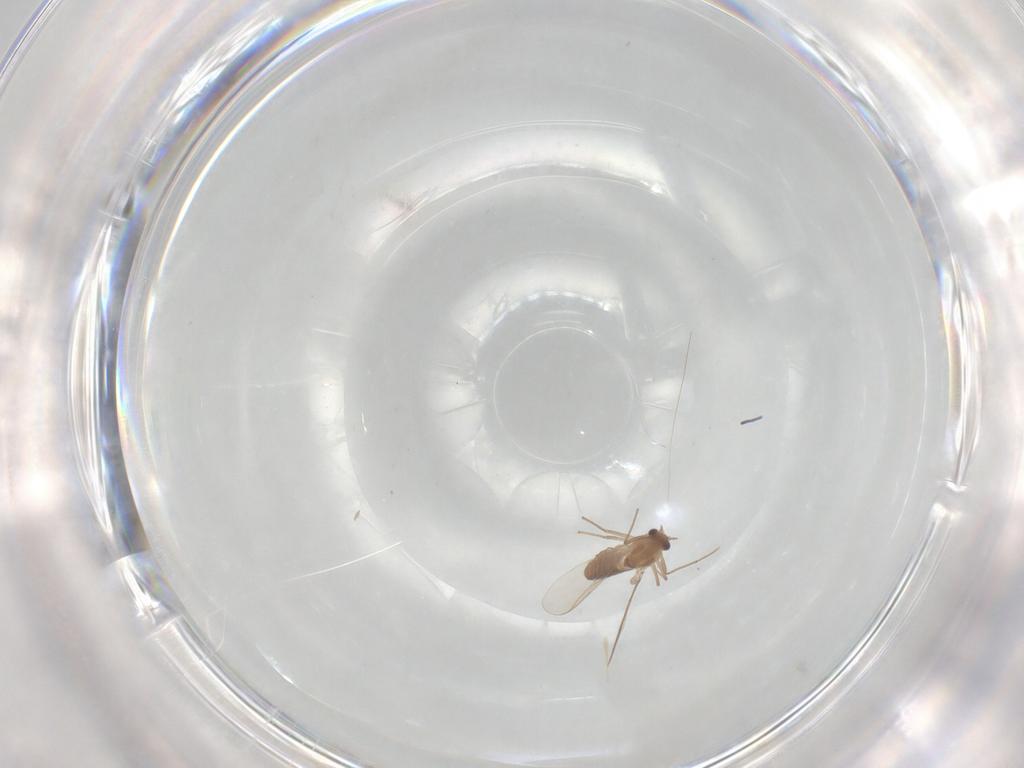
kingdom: Animalia
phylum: Arthropoda
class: Insecta
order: Diptera
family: Chironomidae
